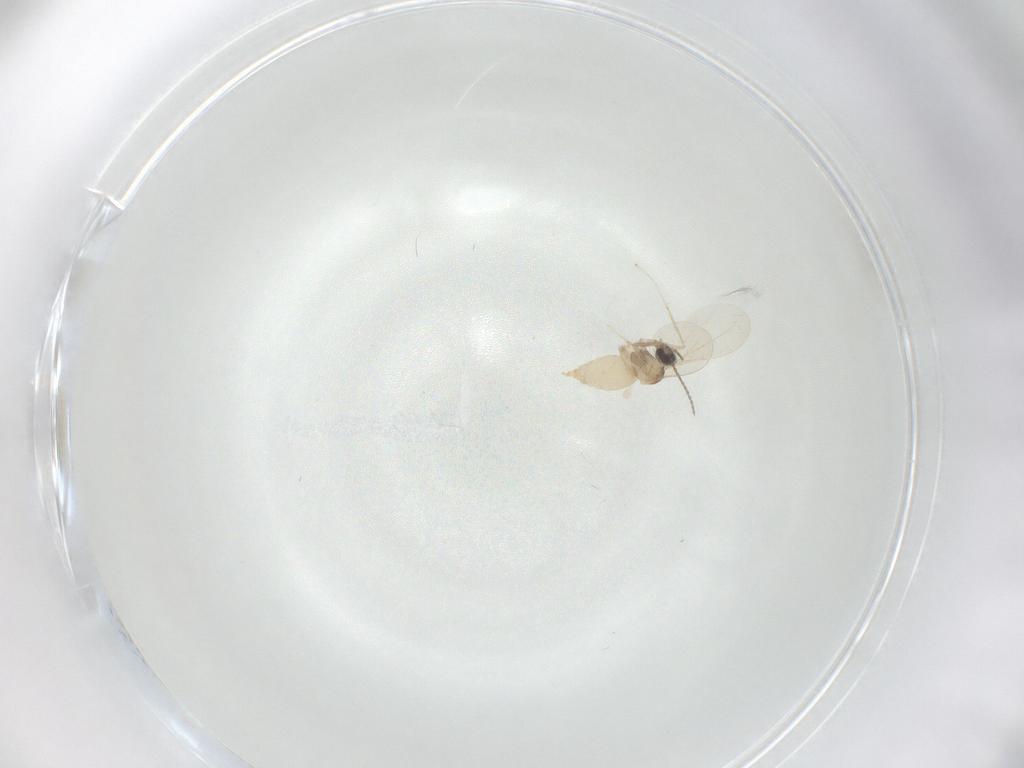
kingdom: Animalia
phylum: Arthropoda
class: Insecta
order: Lepidoptera
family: Lyonetiidae
